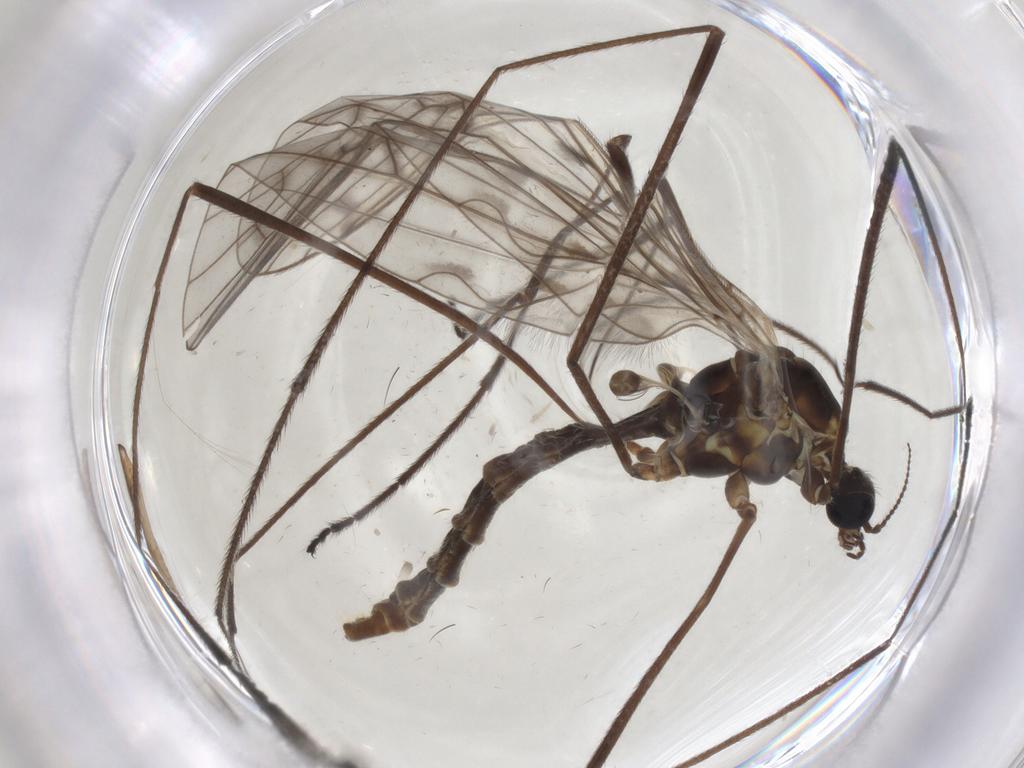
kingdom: Animalia
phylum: Arthropoda
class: Insecta
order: Diptera
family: Limoniidae
